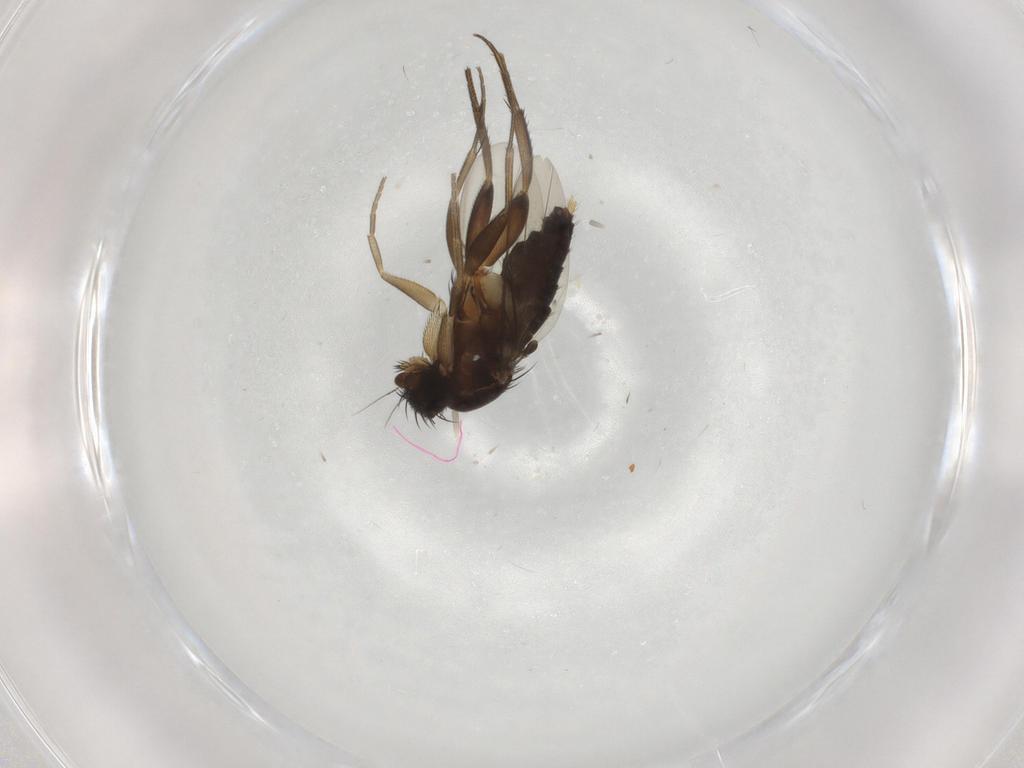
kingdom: Animalia
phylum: Arthropoda
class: Insecta
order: Diptera
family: Phoridae
